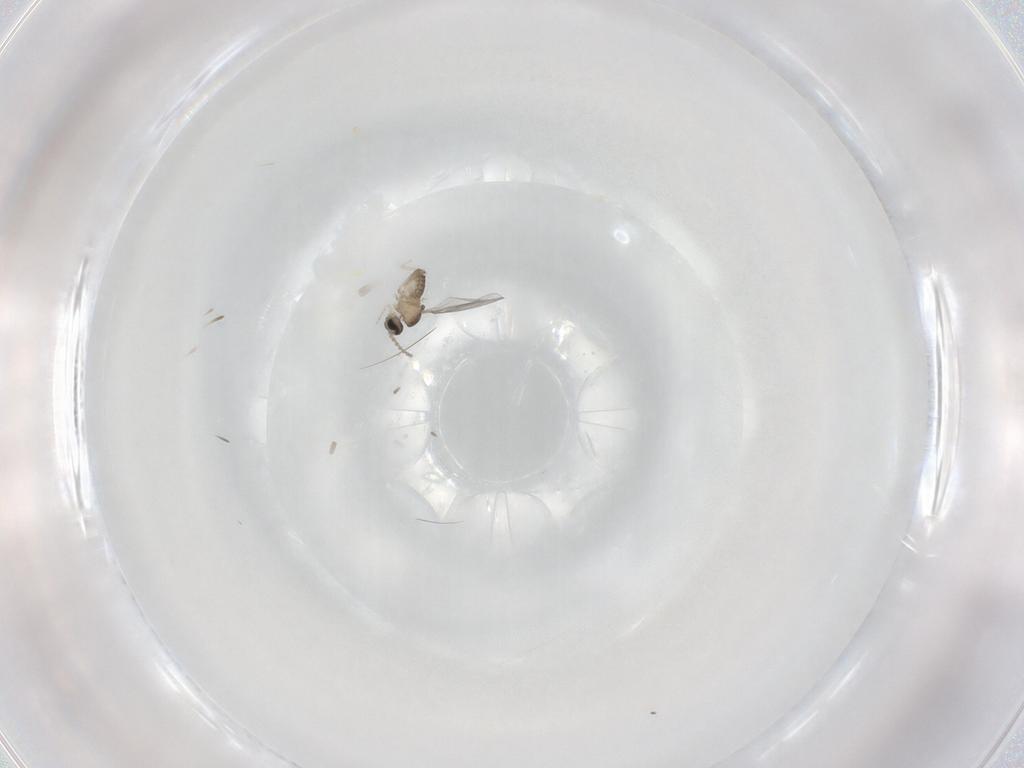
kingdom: Animalia
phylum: Arthropoda
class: Insecta
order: Diptera
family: Cecidomyiidae
